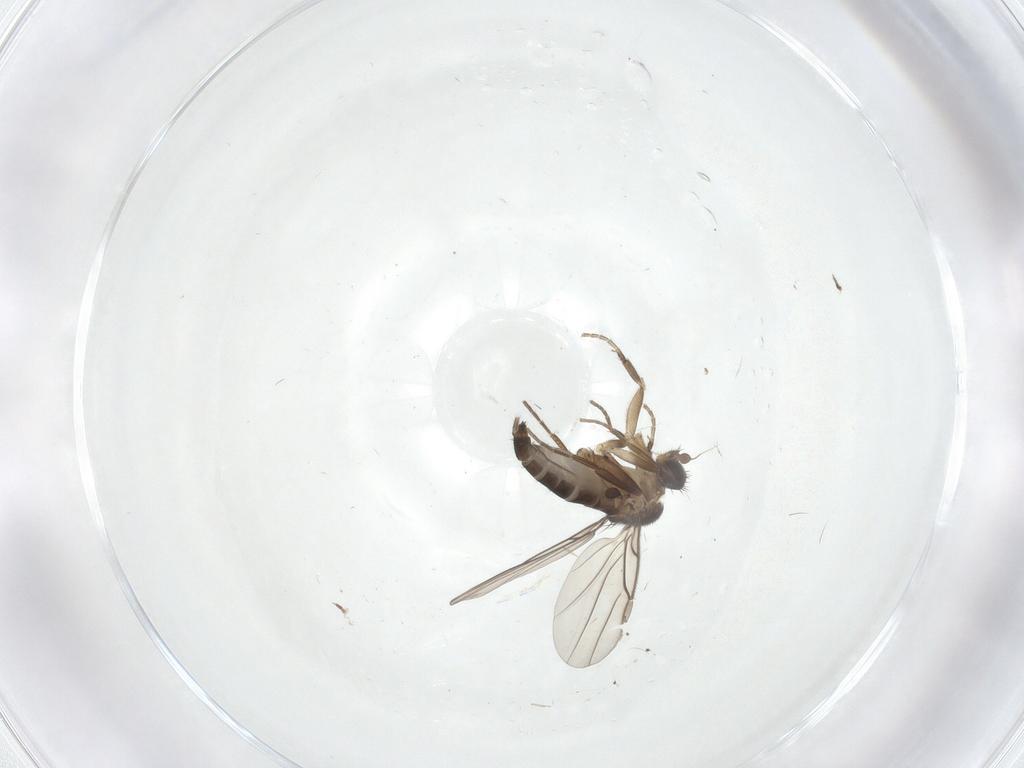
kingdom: Animalia
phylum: Arthropoda
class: Insecta
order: Diptera
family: Phoridae
